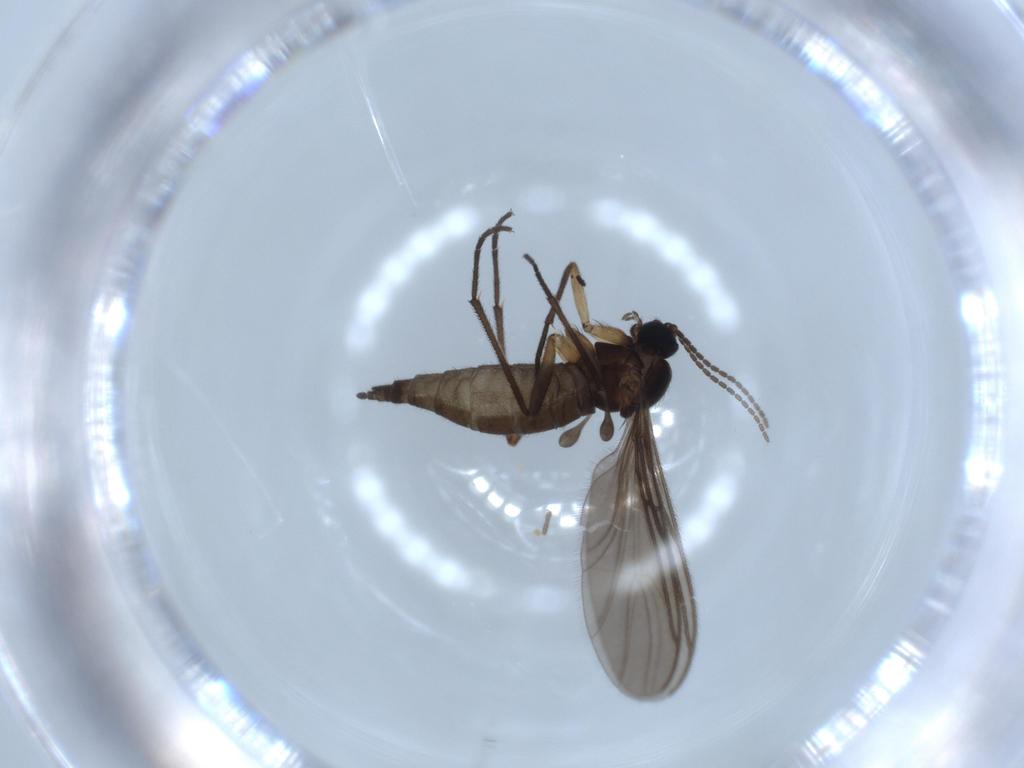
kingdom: Animalia
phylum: Arthropoda
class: Insecta
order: Diptera
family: Sciaridae
